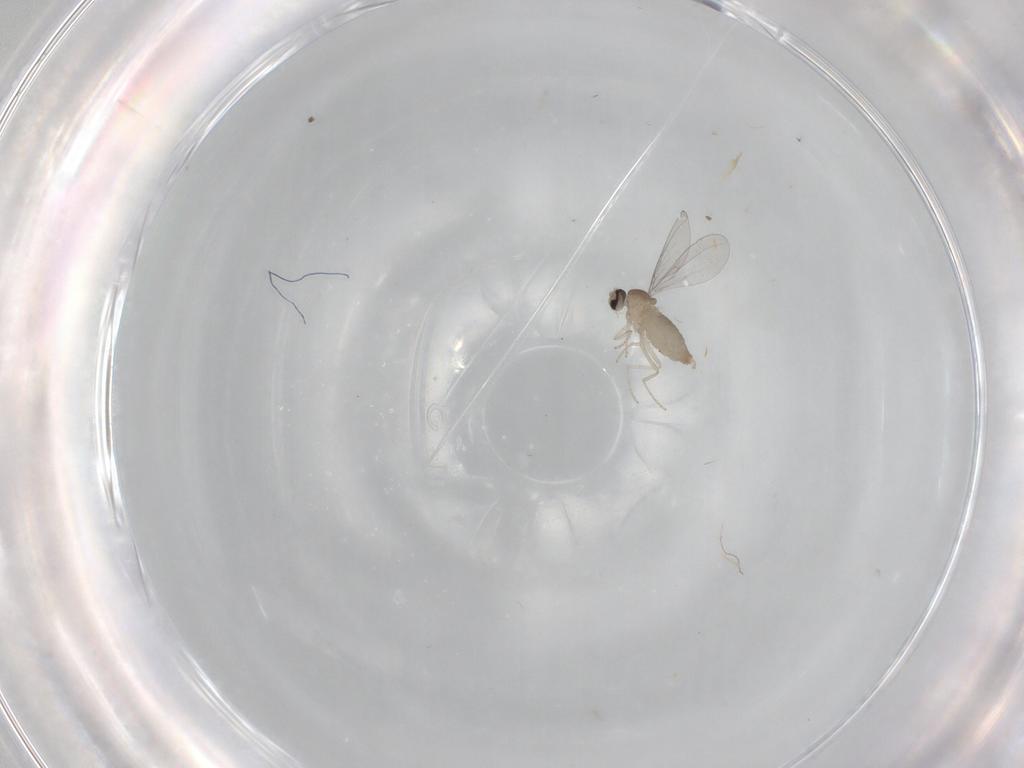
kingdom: Animalia
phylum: Arthropoda
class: Insecta
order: Diptera
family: Cecidomyiidae
